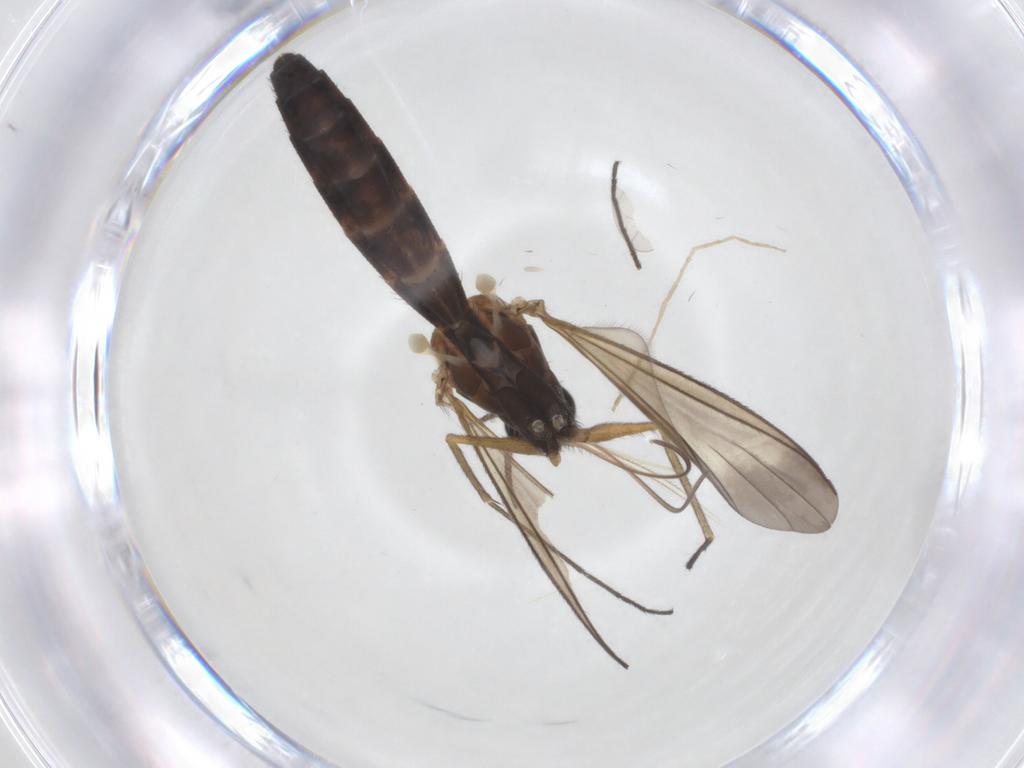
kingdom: Animalia
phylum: Arthropoda
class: Insecta
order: Diptera
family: Keroplatidae
